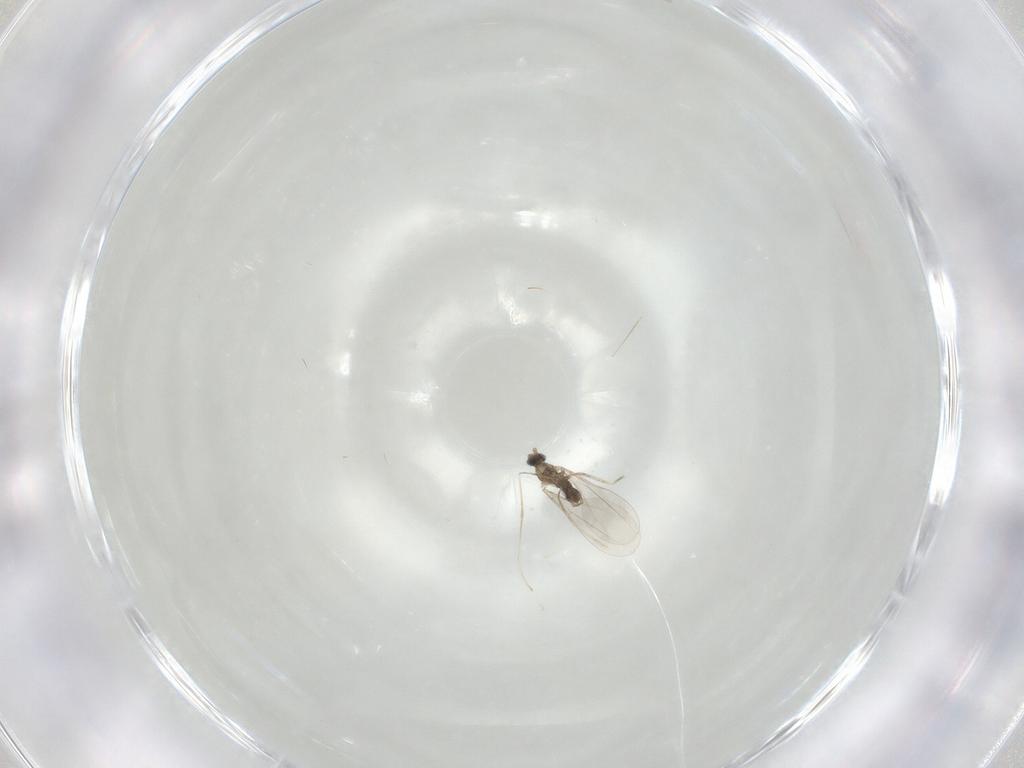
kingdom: Animalia
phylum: Arthropoda
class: Insecta
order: Diptera
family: Cecidomyiidae
